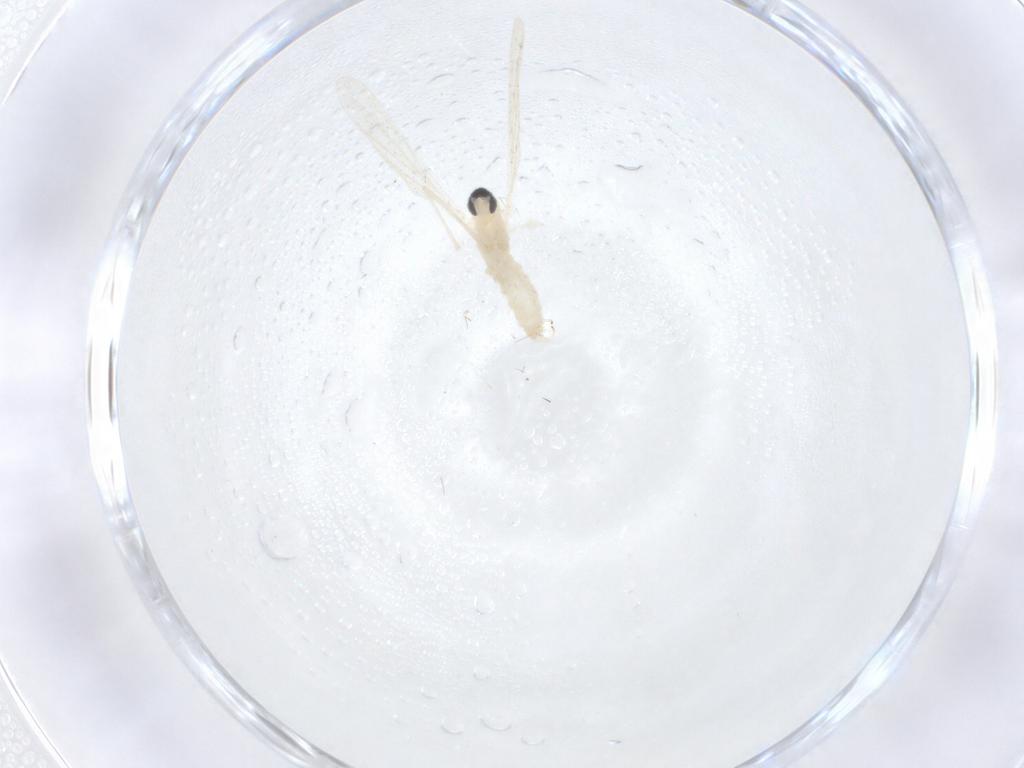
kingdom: Animalia
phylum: Arthropoda
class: Insecta
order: Diptera
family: Cecidomyiidae
